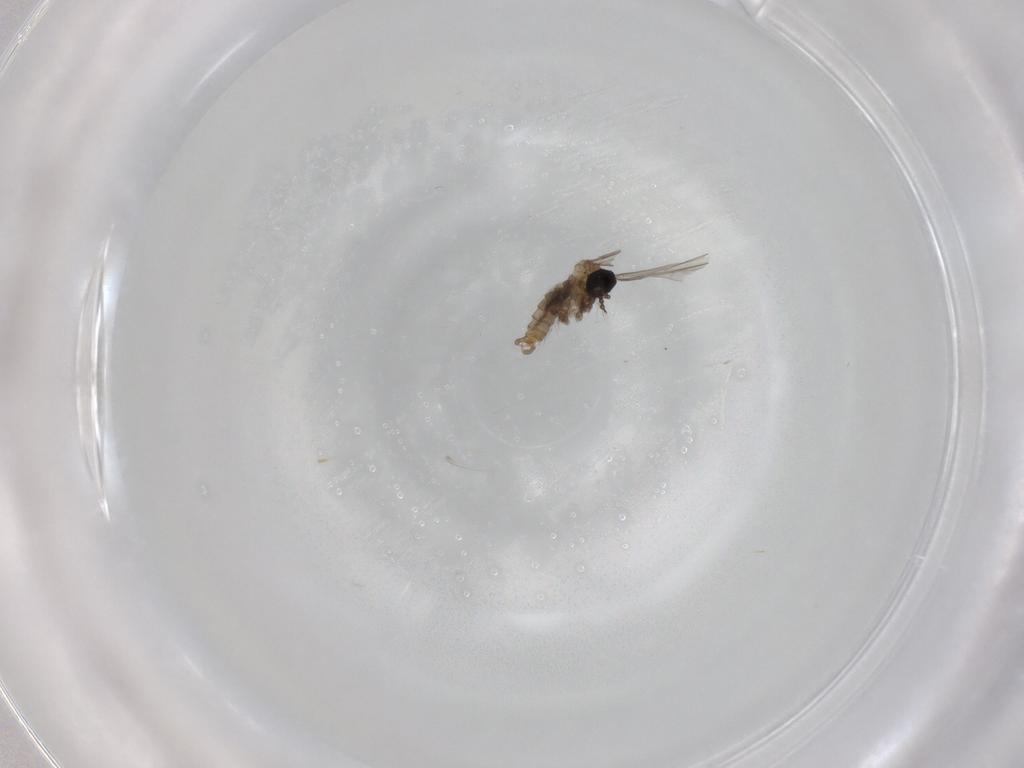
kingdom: Animalia
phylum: Arthropoda
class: Insecta
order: Diptera
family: Cecidomyiidae
